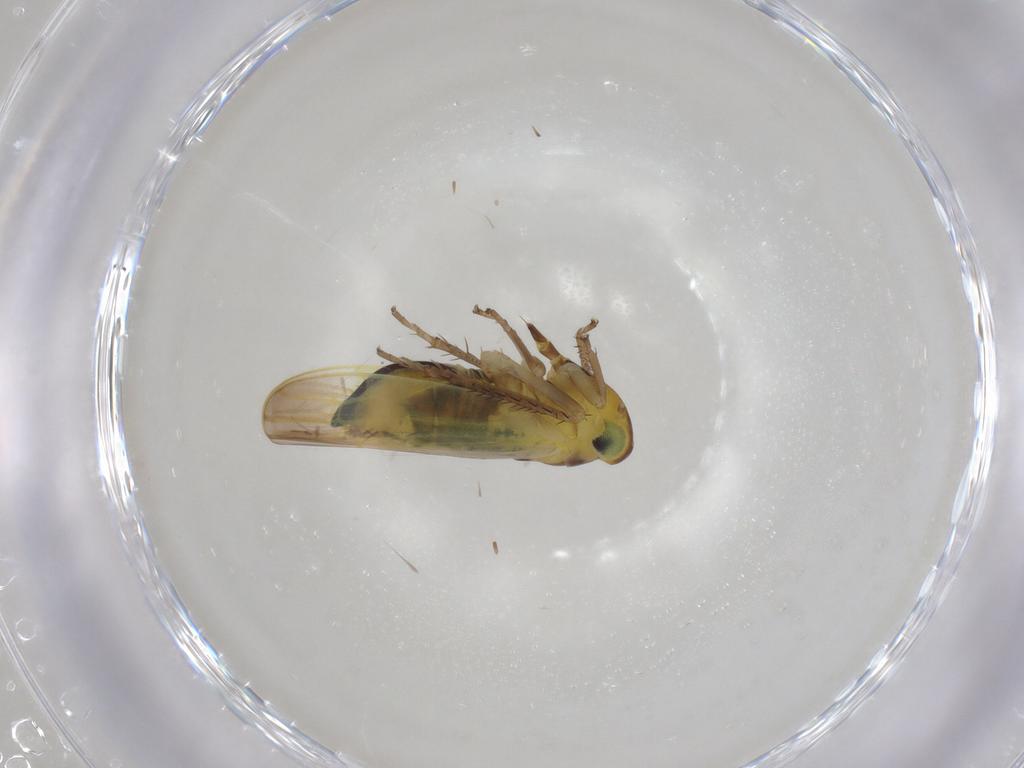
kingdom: Animalia
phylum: Arthropoda
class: Insecta
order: Hemiptera
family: Cicadellidae
